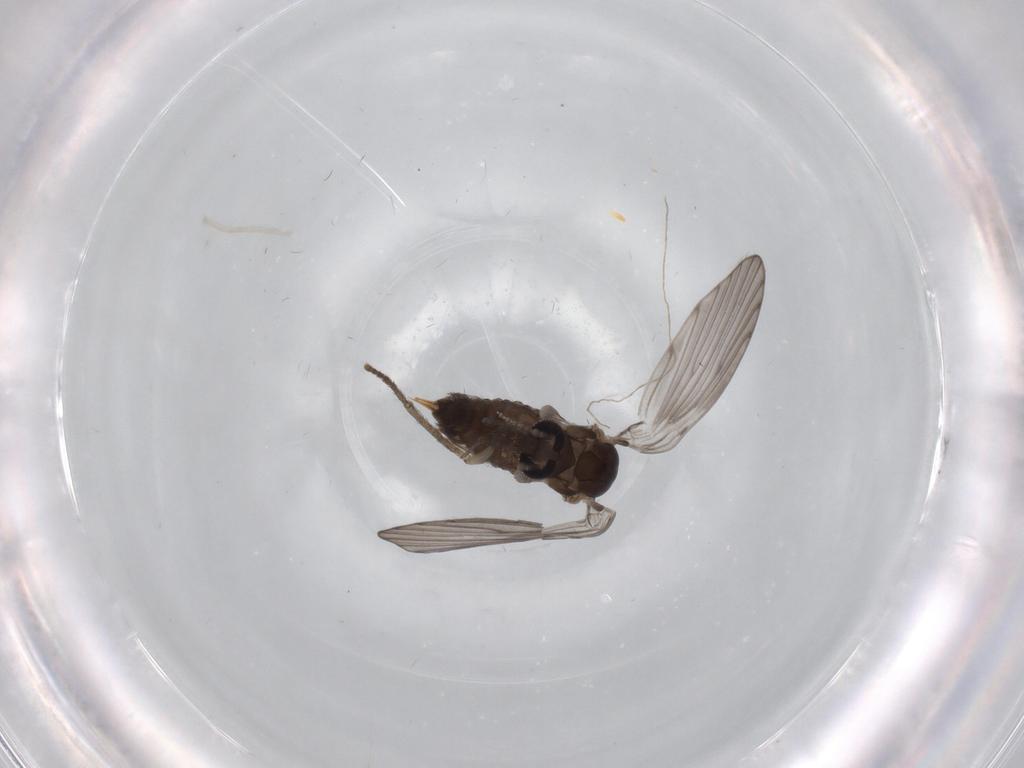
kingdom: Animalia
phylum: Arthropoda
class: Insecta
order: Diptera
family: Psychodidae
